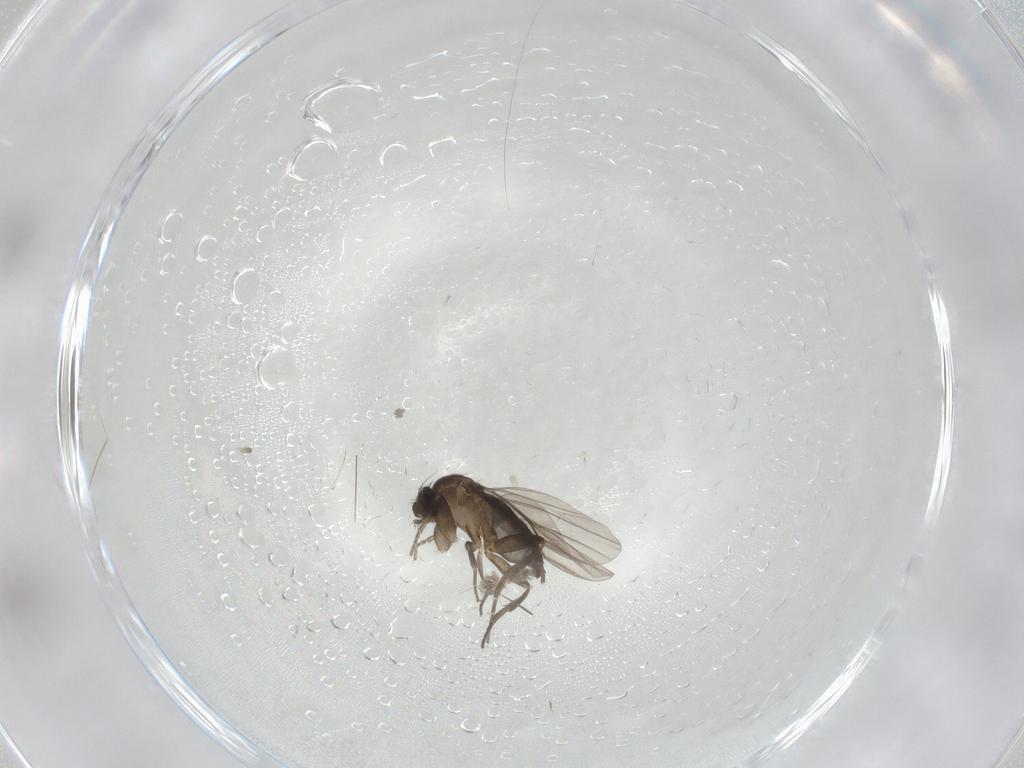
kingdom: Animalia
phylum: Arthropoda
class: Insecta
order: Diptera
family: Phoridae
